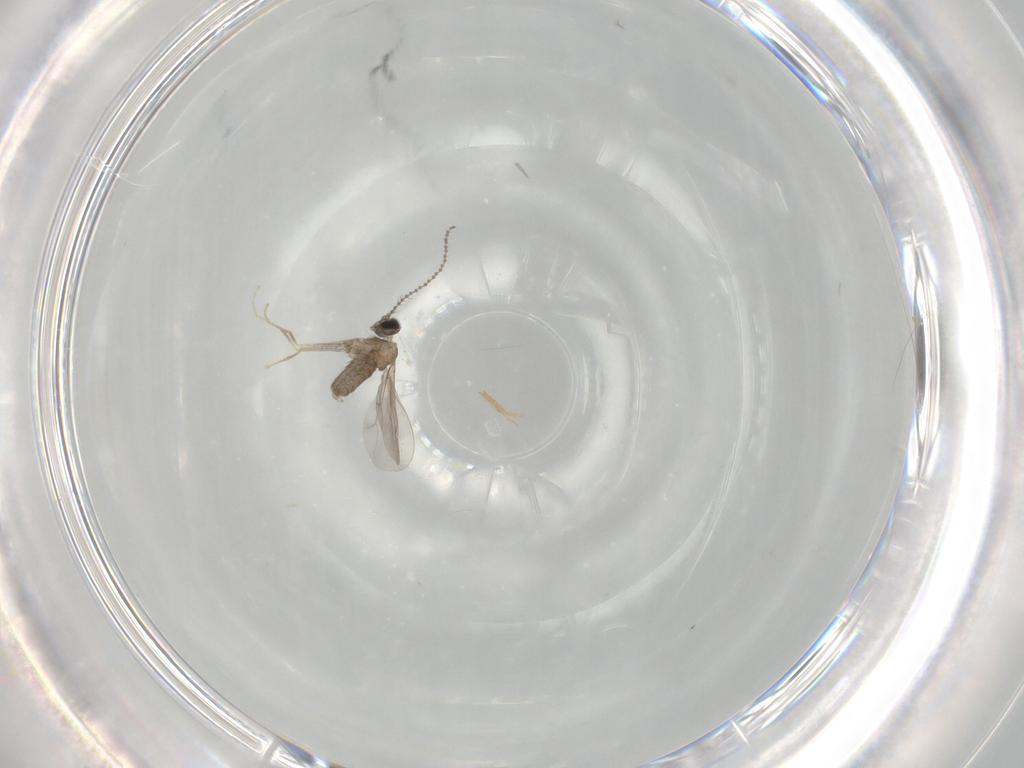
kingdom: Animalia
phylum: Arthropoda
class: Insecta
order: Diptera
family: Cecidomyiidae
